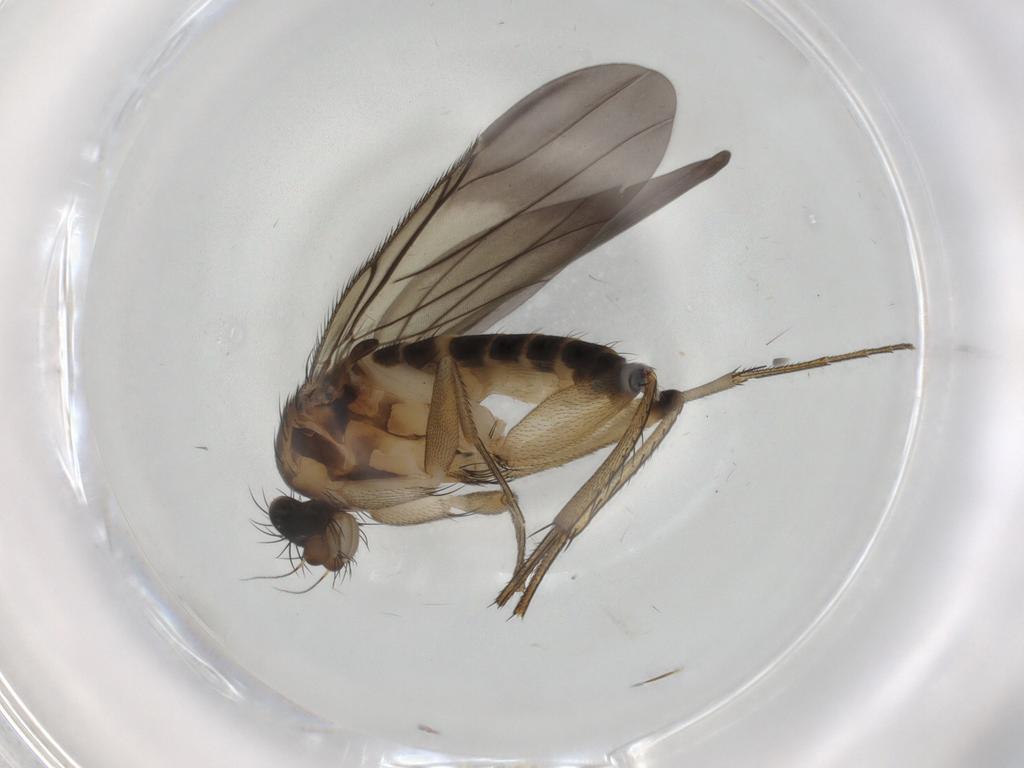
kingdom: Animalia
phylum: Arthropoda
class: Insecta
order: Diptera
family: Phoridae
